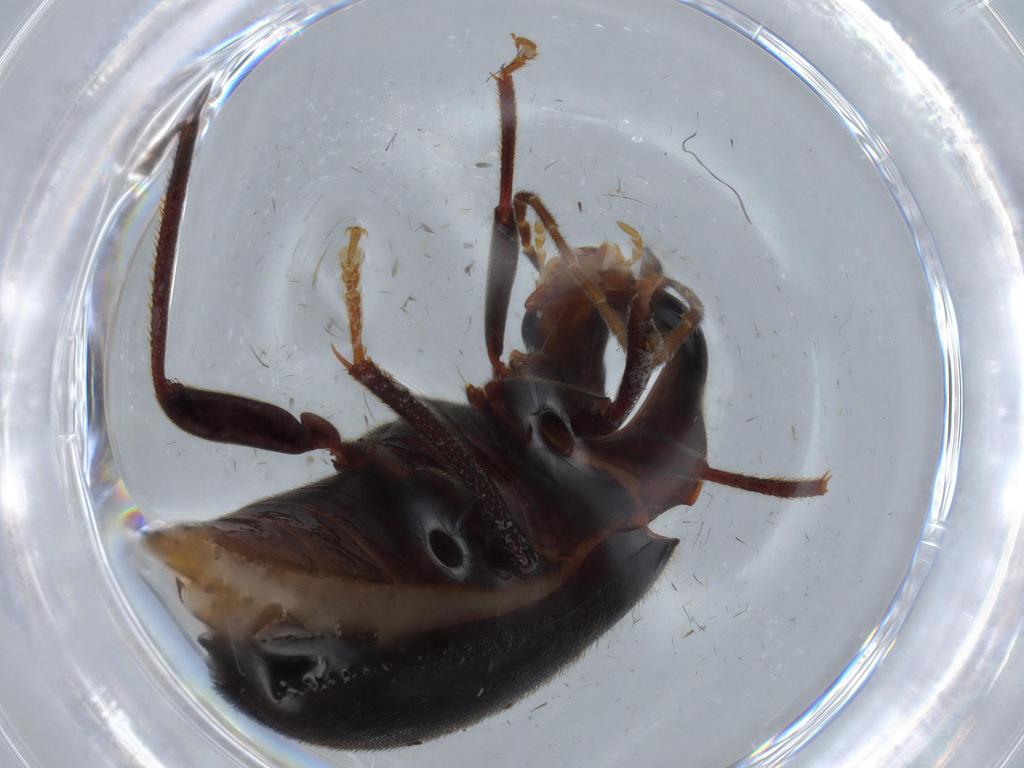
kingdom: Animalia
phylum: Arthropoda
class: Insecta
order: Coleoptera
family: Ptilodactylidae
